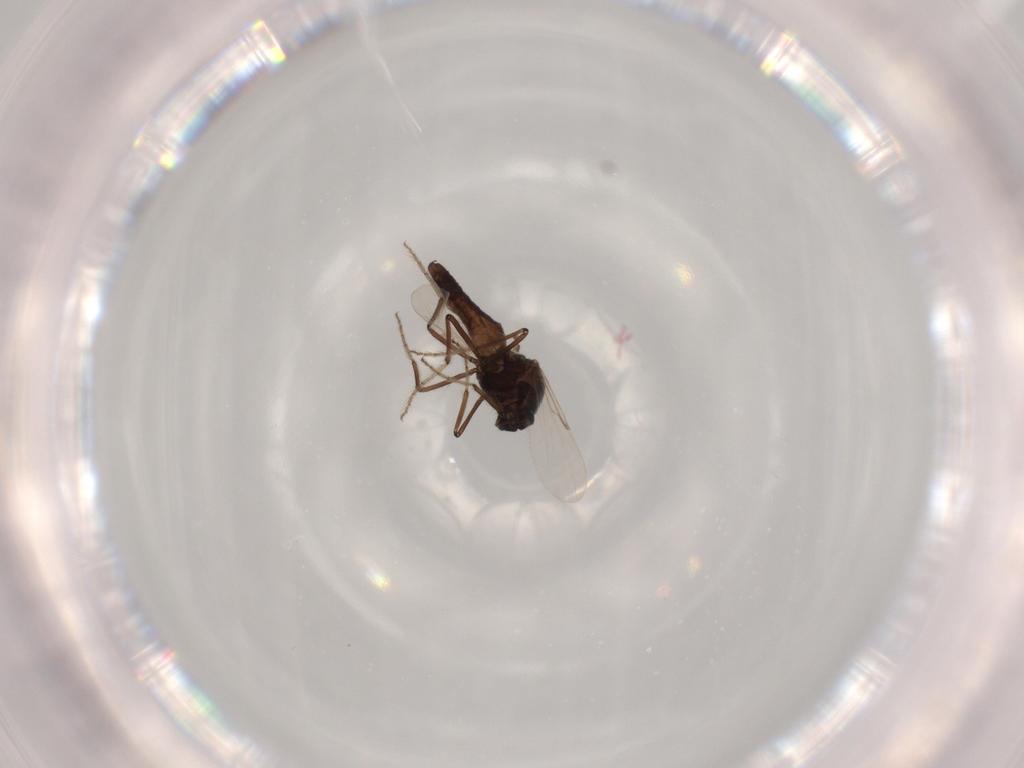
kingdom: Animalia
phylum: Arthropoda
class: Insecta
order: Diptera
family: Chironomidae
